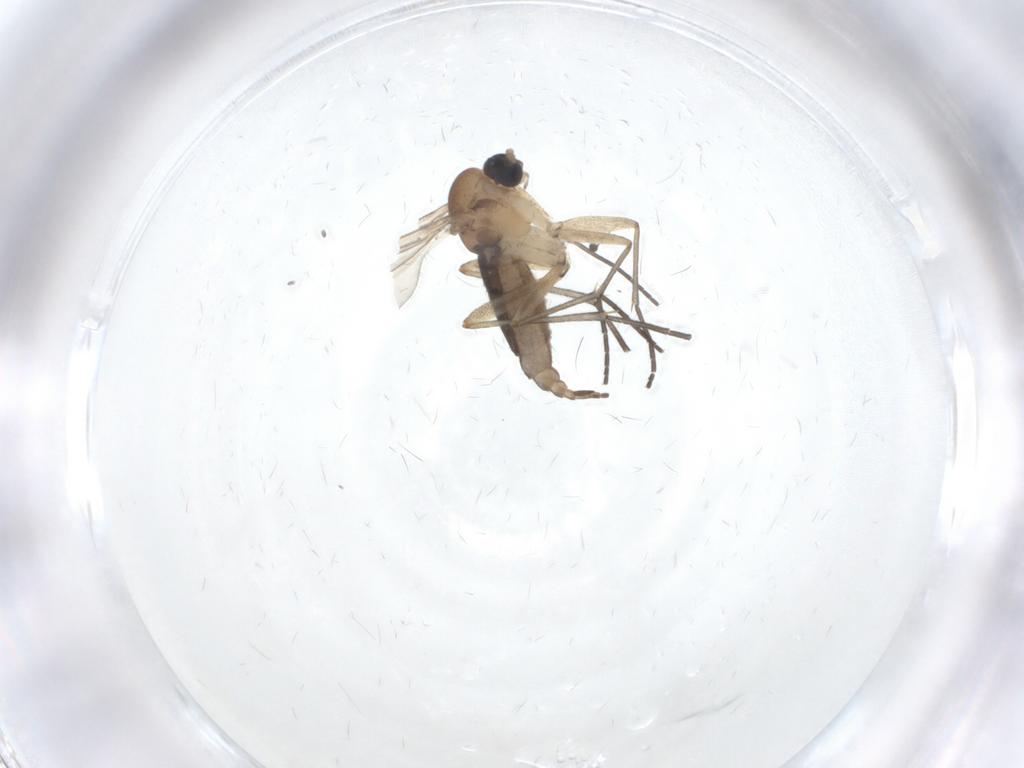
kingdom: Animalia
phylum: Arthropoda
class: Insecta
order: Diptera
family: Sciaridae
